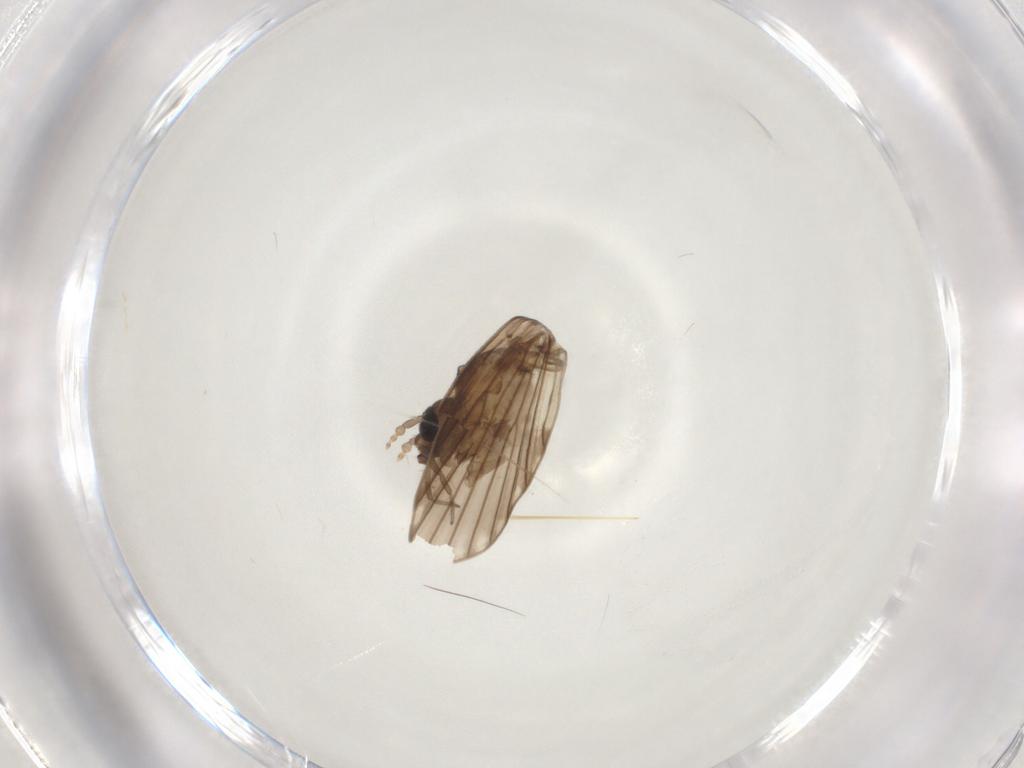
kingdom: Animalia
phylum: Arthropoda
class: Insecta
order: Diptera
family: Psychodidae
